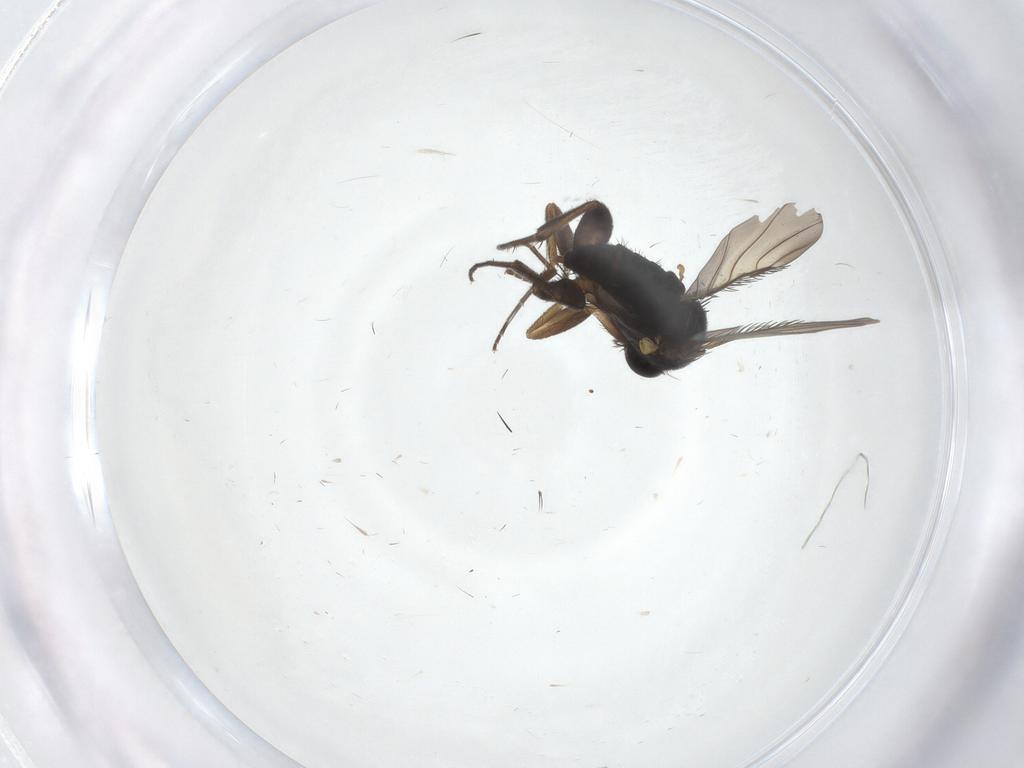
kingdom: Animalia
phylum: Arthropoda
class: Insecta
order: Diptera
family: Phoridae
